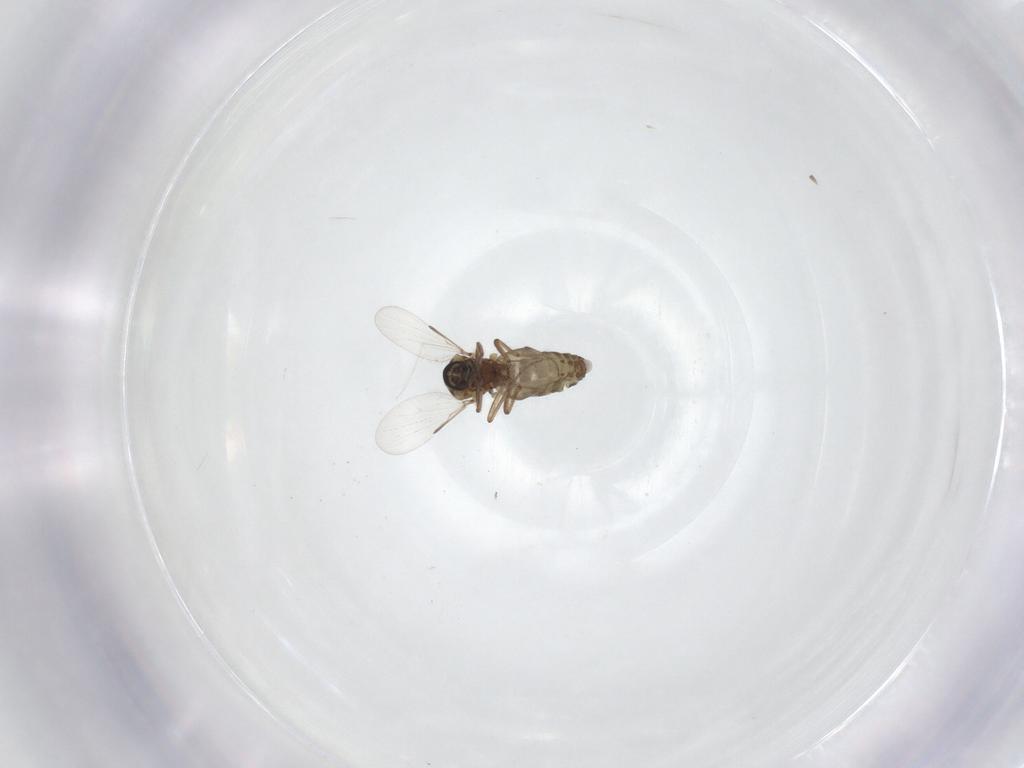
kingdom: Animalia
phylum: Arthropoda
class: Insecta
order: Diptera
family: Ceratopogonidae
